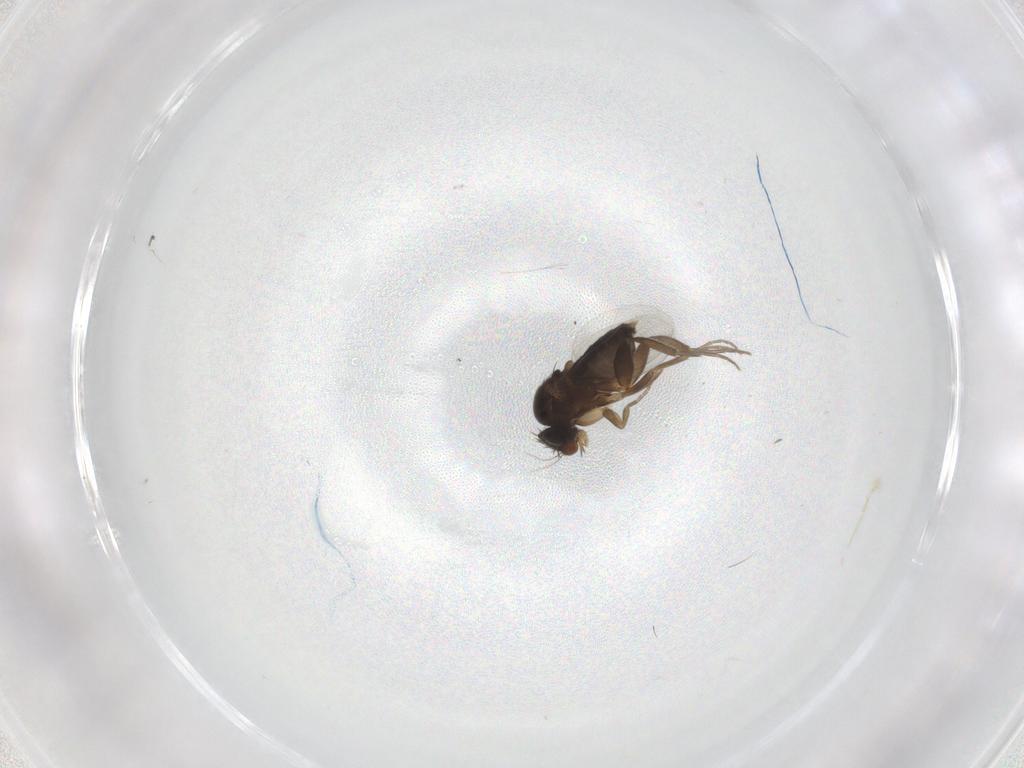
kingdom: Animalia
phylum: Arthropoda
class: Insecta
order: Diptera
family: Phoridae
